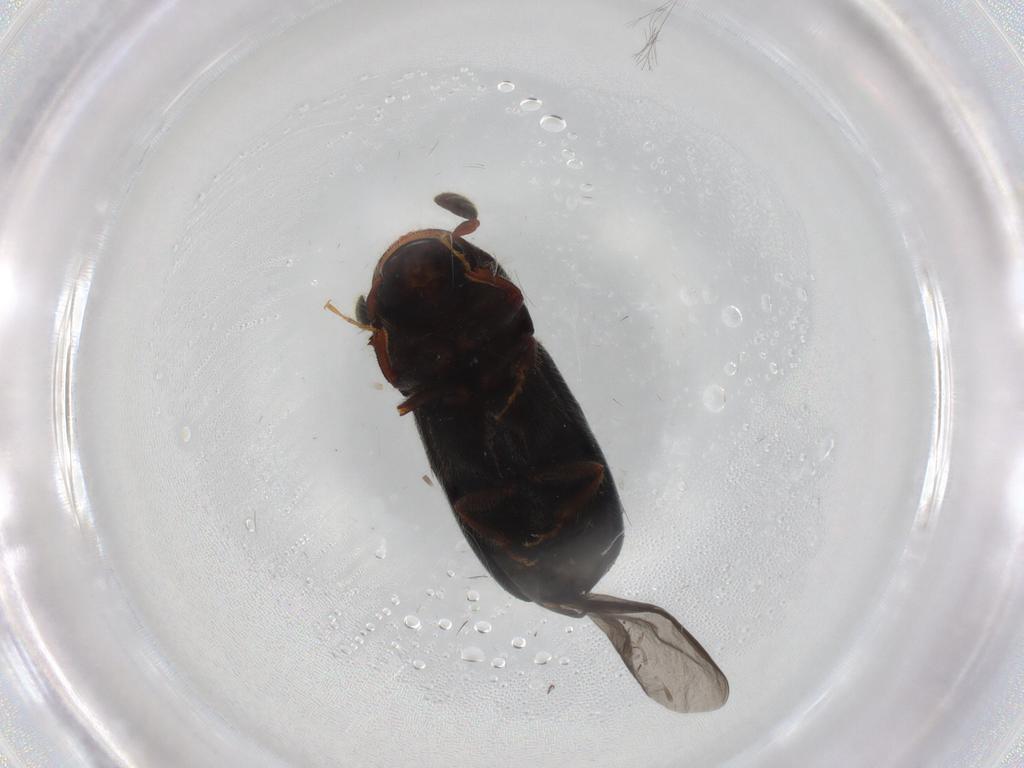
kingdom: Animalia
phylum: Arthropoda
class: Insecta
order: Coleoptera
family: Curculionidae
